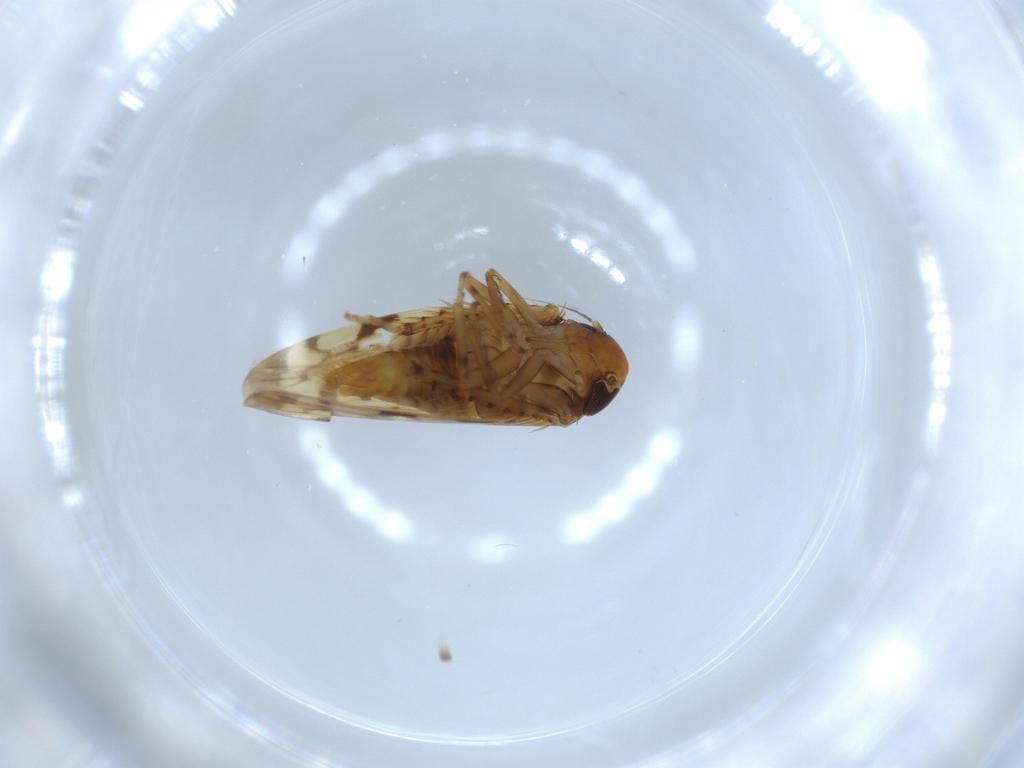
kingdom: Animalia
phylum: Arthropoda
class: Insecta
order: Hemiptera
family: Cicadellidae
